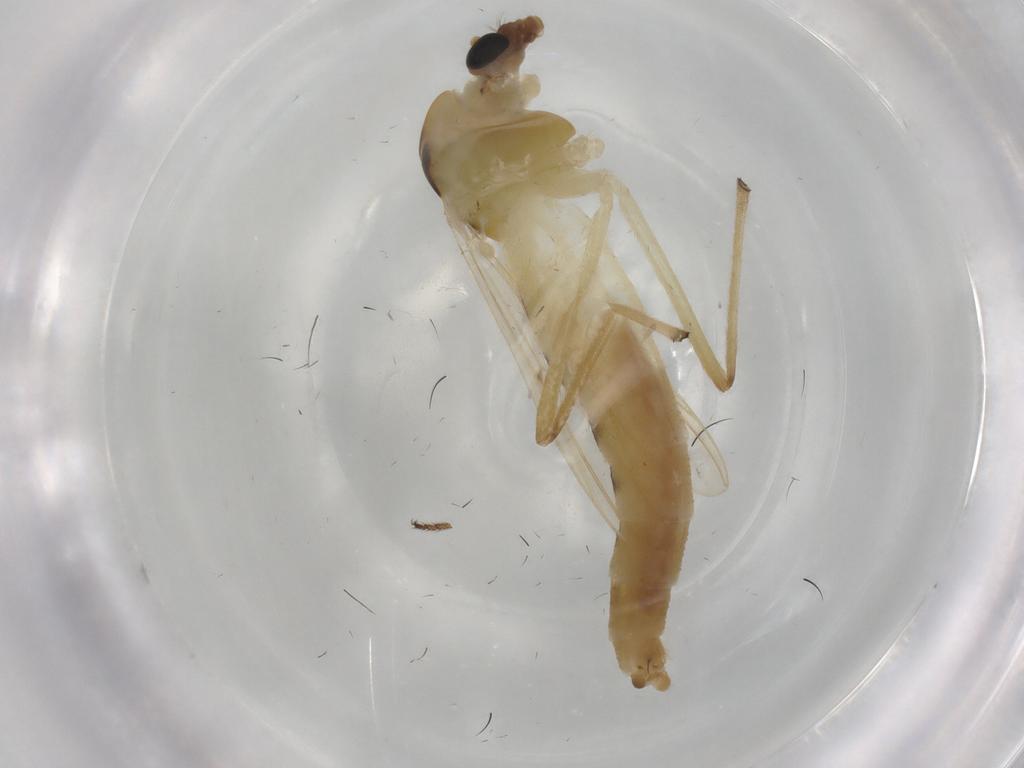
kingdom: Animalia
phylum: Arthropoda
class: Insecta
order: Diptera
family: Chironomidae
